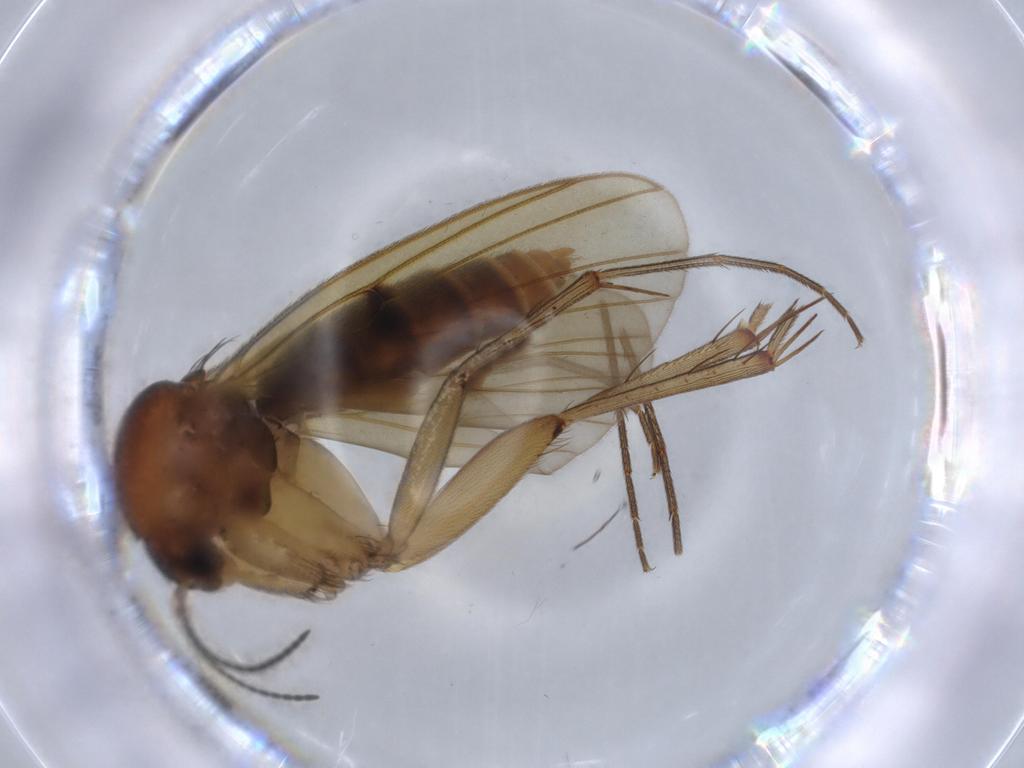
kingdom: Animalia
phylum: Arthropoda
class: Insecta
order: Diptera
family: Mycetophilidae
